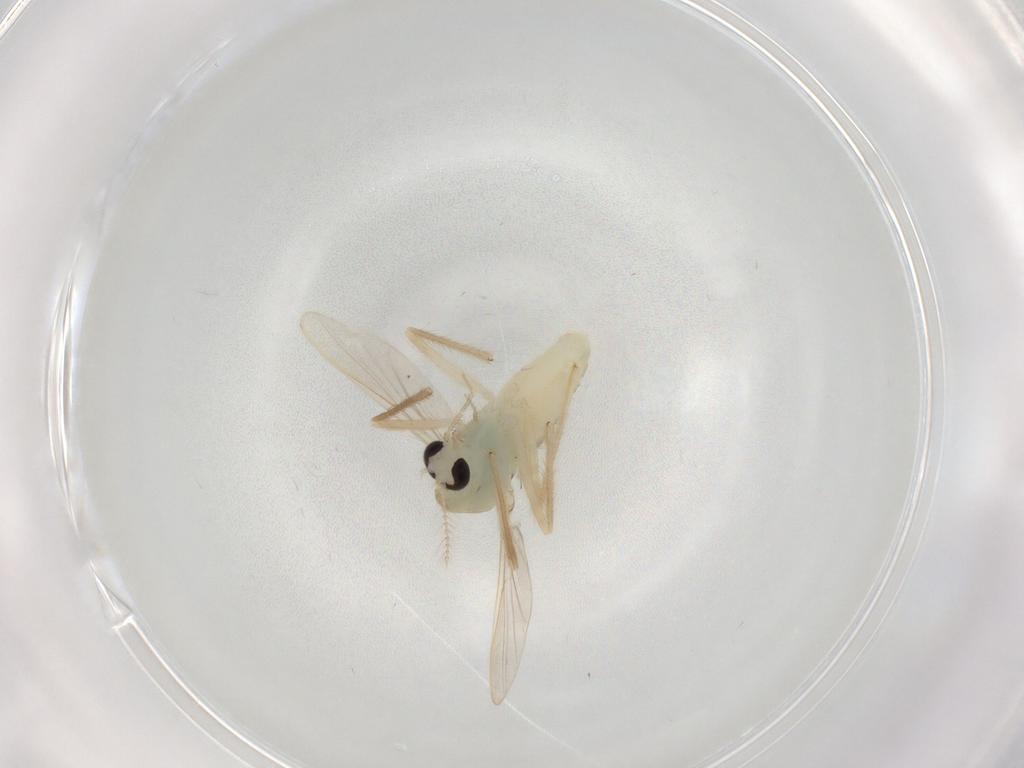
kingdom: Animalia
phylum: Arthropoda
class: Insecta
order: Diptera
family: Chironomidae
